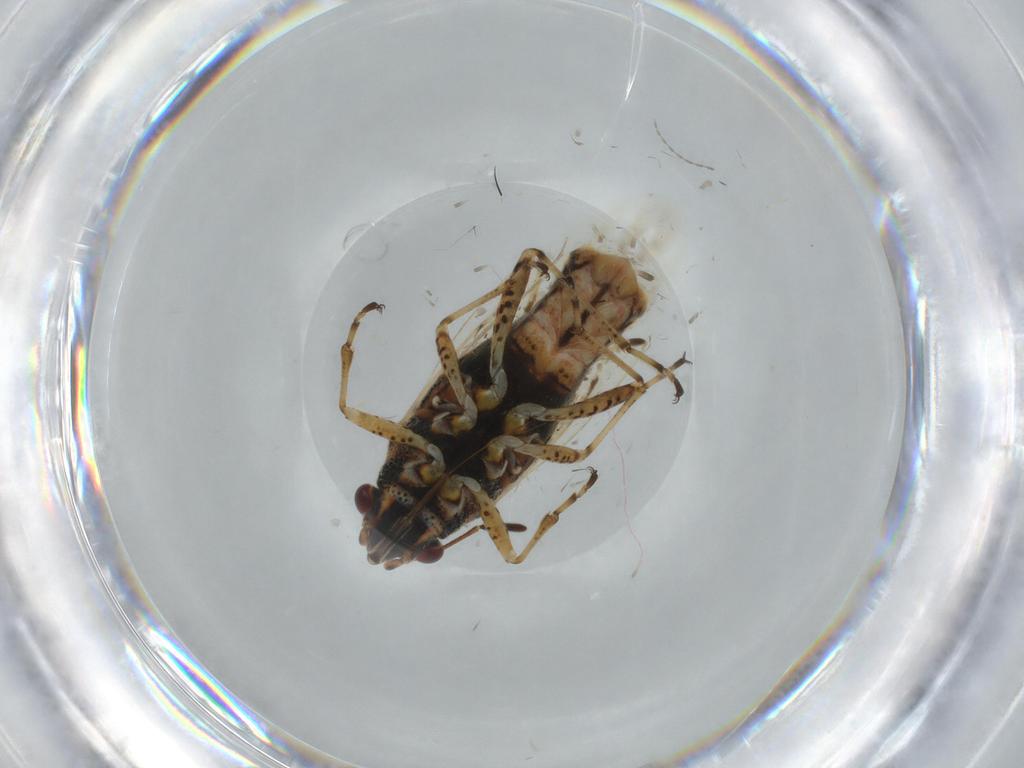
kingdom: Animalia
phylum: Arthropoda
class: Insecta
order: Hemiptera
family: Lygaeidae
